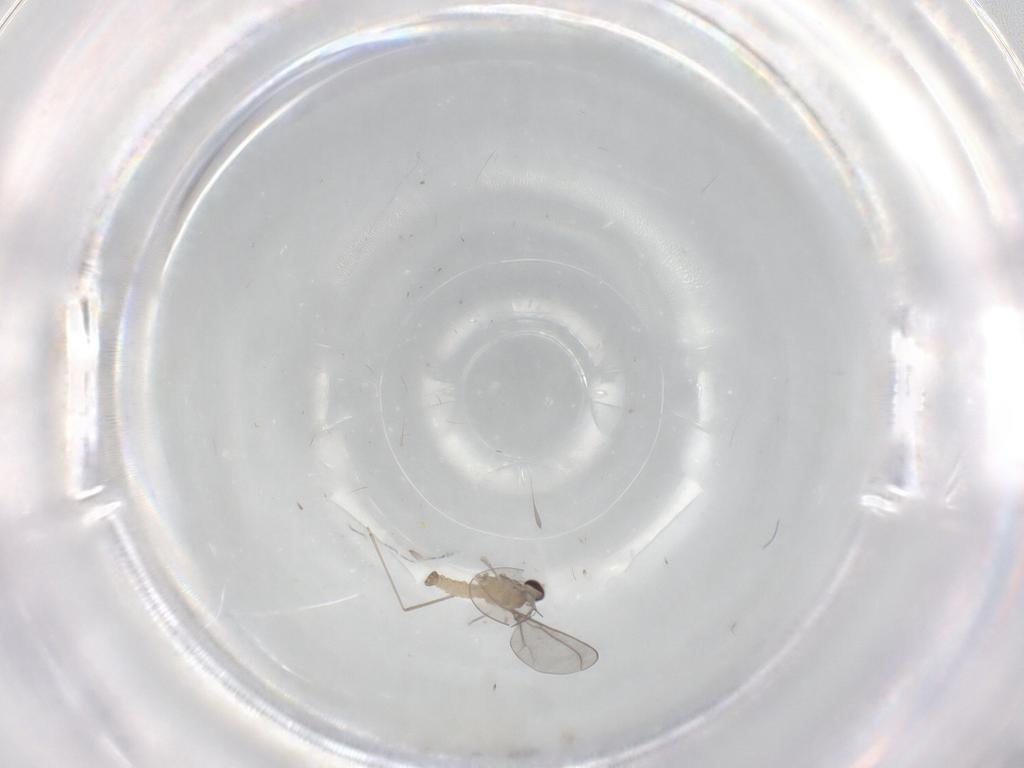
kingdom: Animalia
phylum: Arthropoda
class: Insecta
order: Diptera
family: Cecidomyiidae
